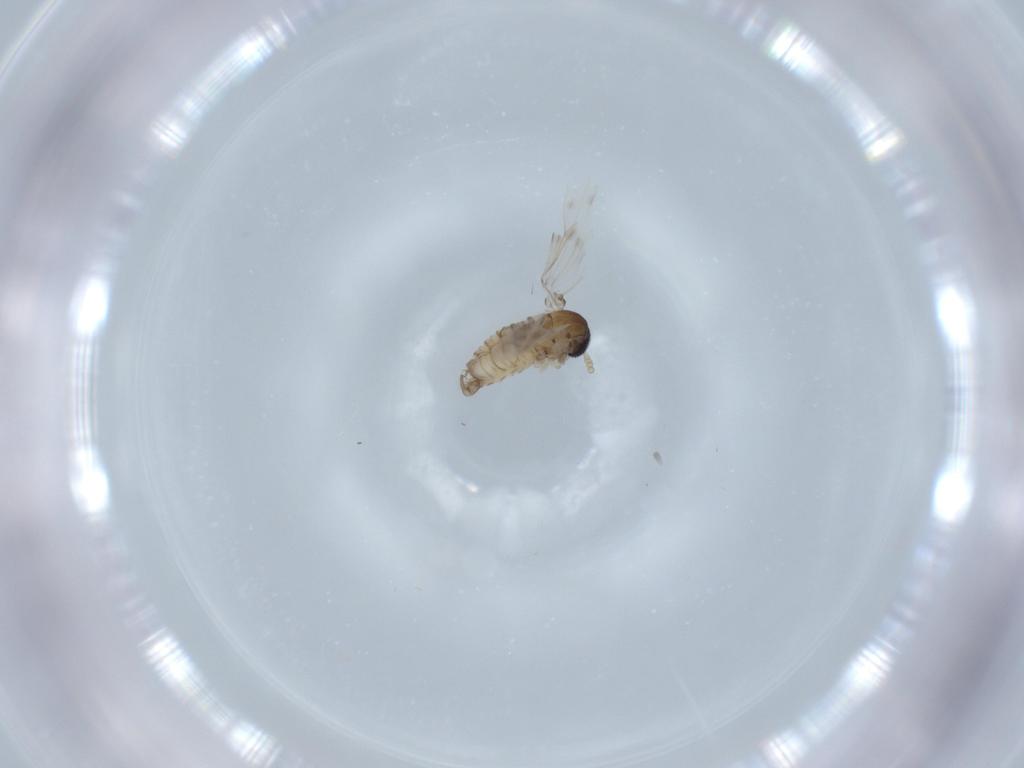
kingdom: Animalia
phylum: Arthropoda
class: Insecta
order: Diptera
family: Psychodidae
